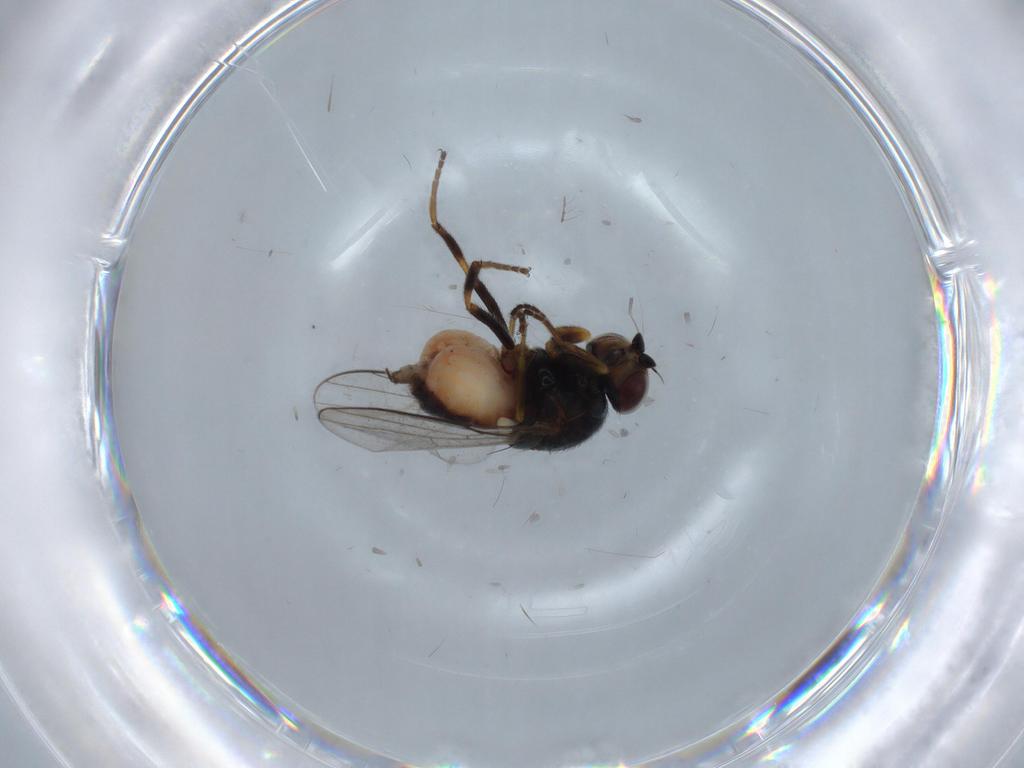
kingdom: Animalia
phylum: Arthropoda
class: Insecta
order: Diptera
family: Chloropidae
